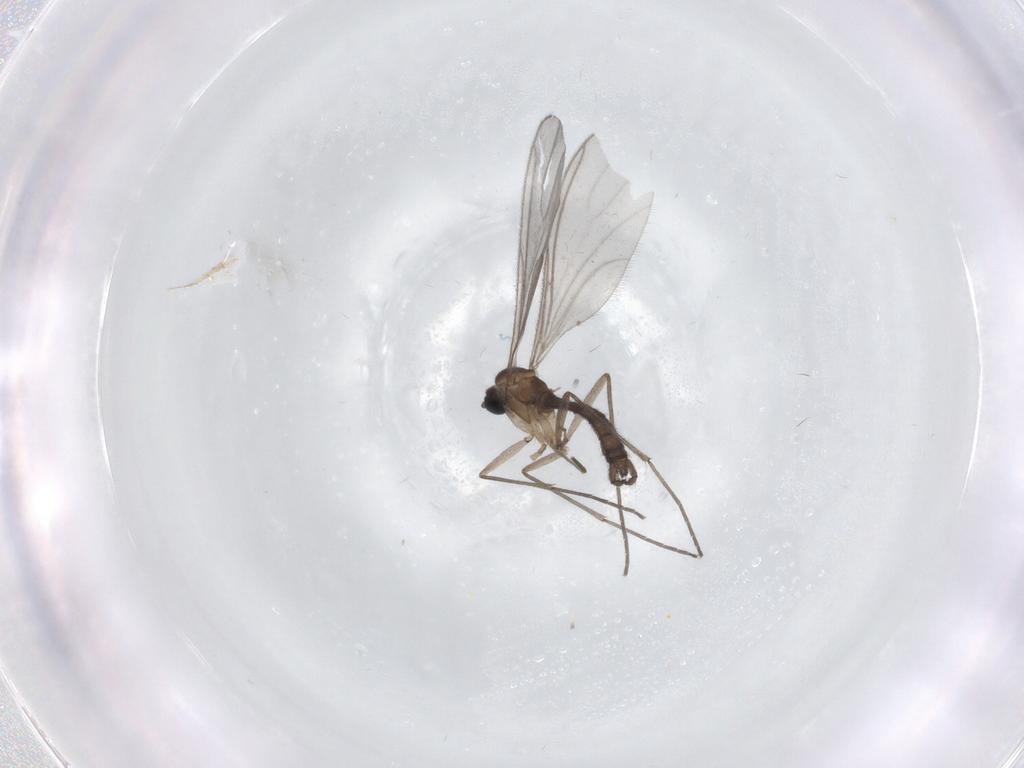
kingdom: Animalia
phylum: Arthropoda
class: Insecta
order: Diptera
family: Sciaridae
